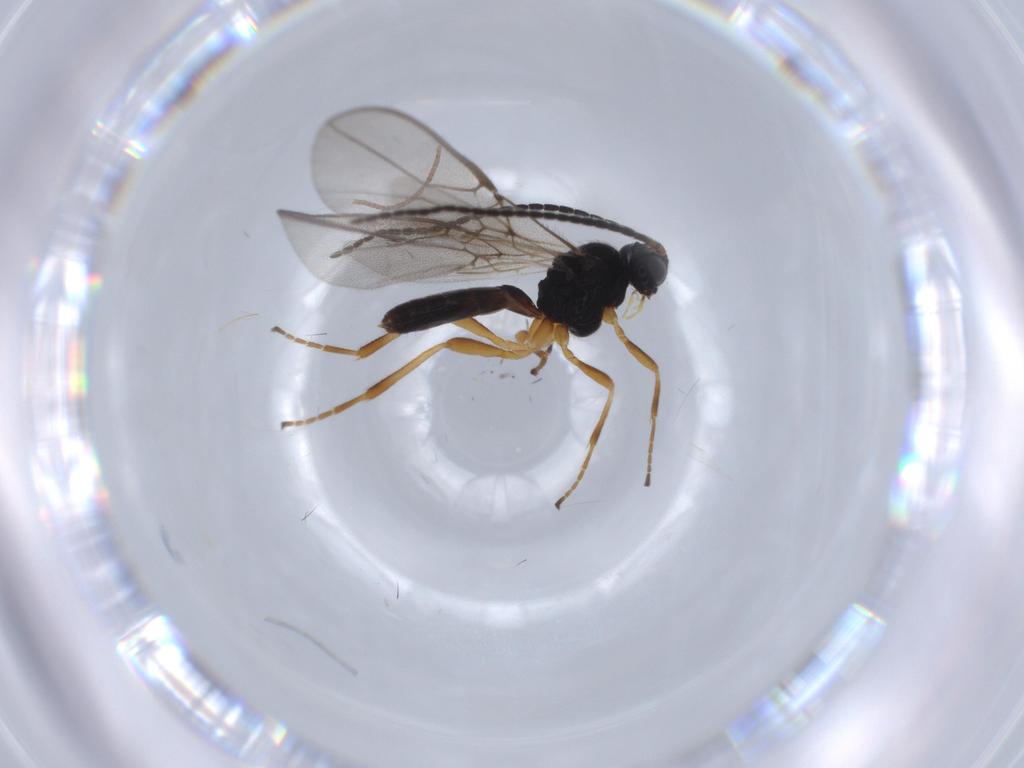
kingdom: Animalia
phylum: Arthropoda
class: Insecta
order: Hymenoptera
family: Braconidae
